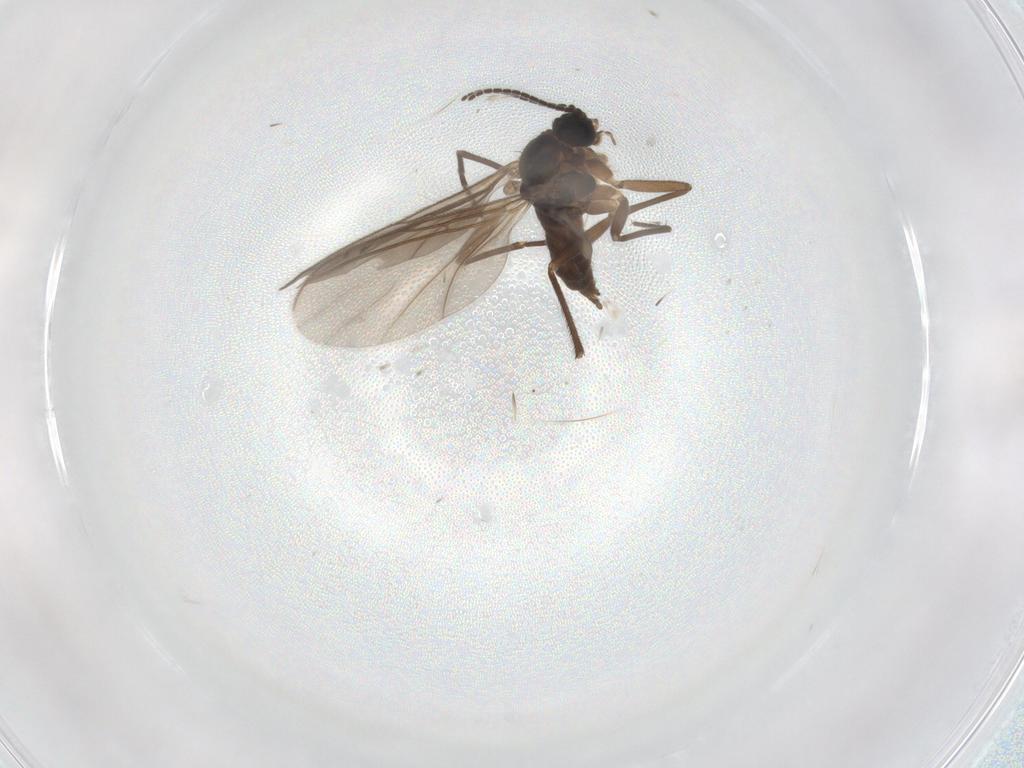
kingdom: Animalia
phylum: Arthropoda
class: Insecta
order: Diptera
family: Sciaridae
